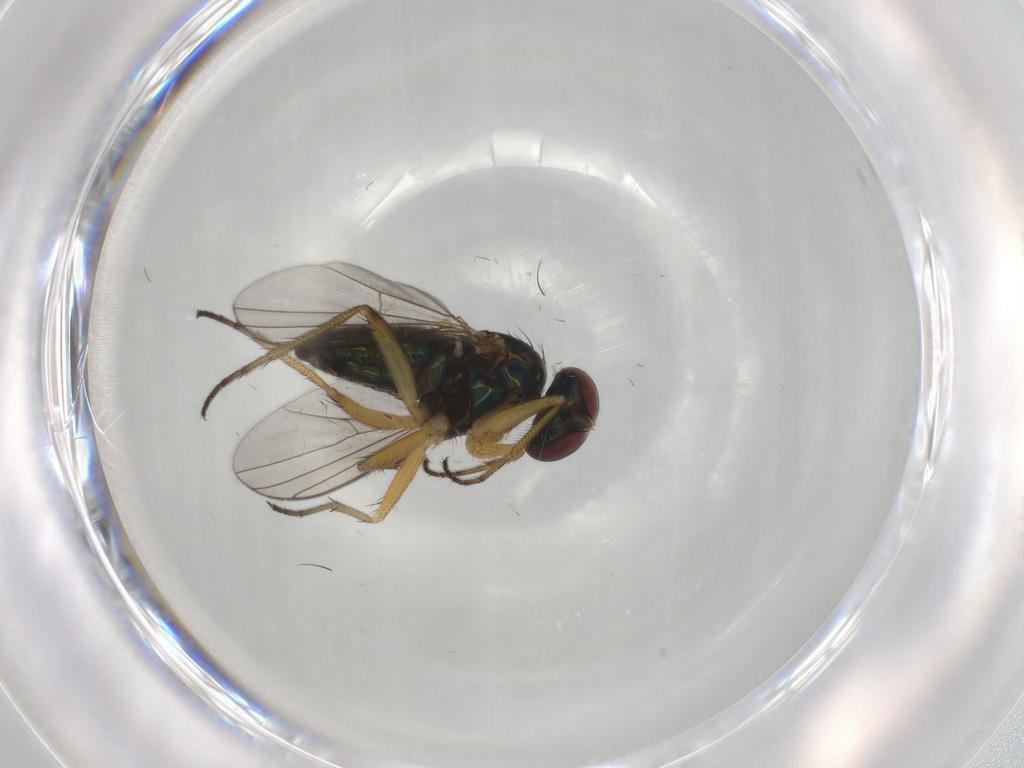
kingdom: Animalia
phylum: Arthropoda
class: Insecta
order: Diptera
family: Dolichopodidae
